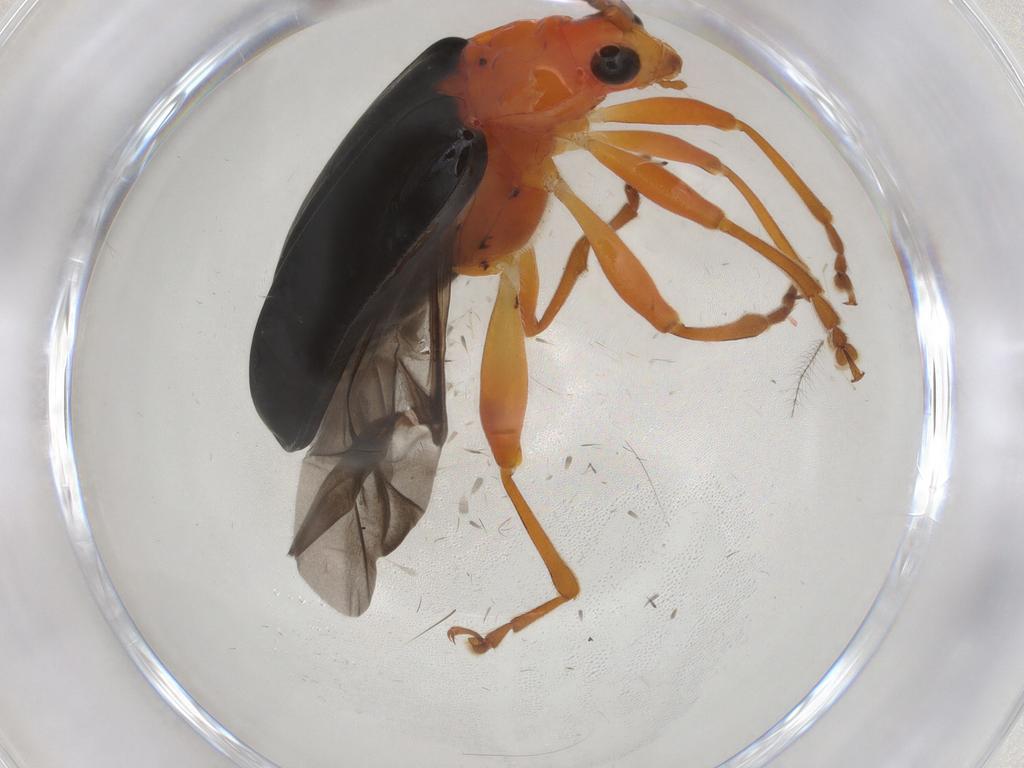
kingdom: Animalia
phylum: Arthropoda
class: Insecta
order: Coleoptera
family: Chrysomelidae
